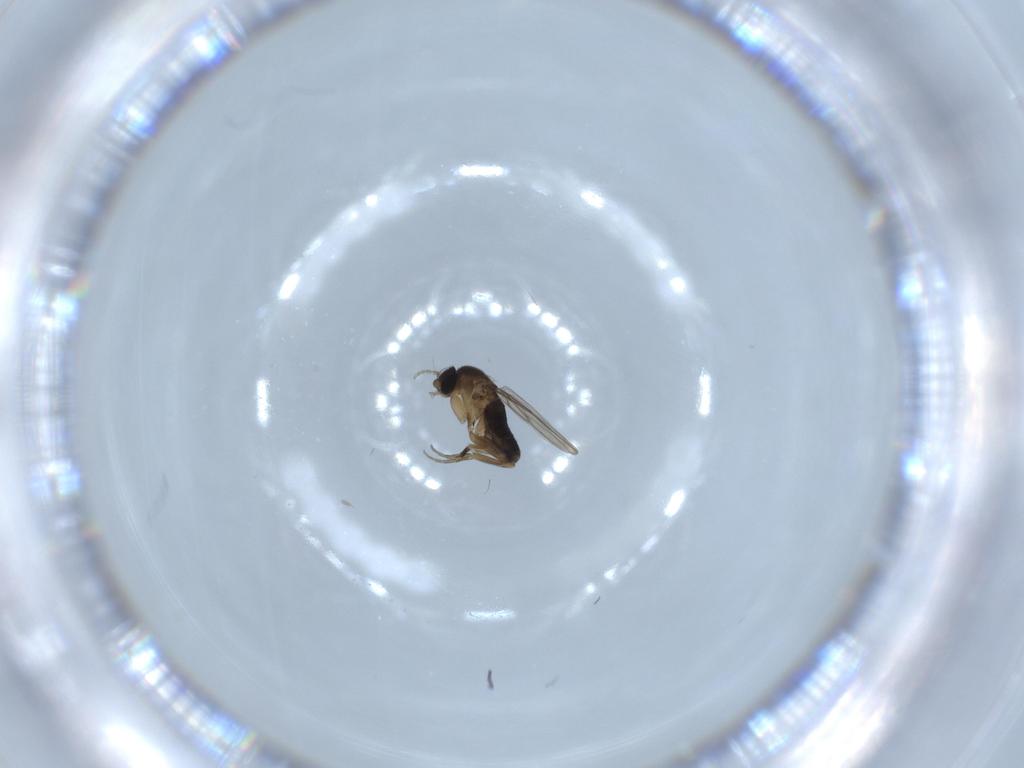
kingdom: Animalia
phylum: Arthropoda
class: Insecta
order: Diptera
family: Phoridae
